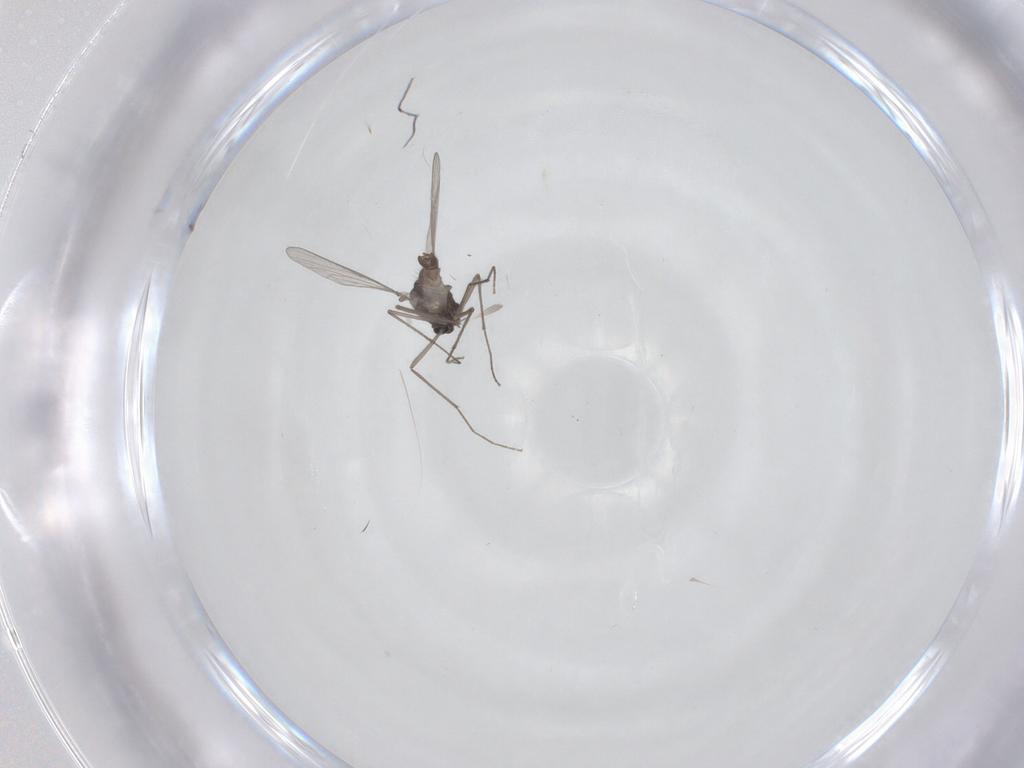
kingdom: Animalia
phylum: Arthropoda
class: Insecta
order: Diptera
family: Chironomidae
